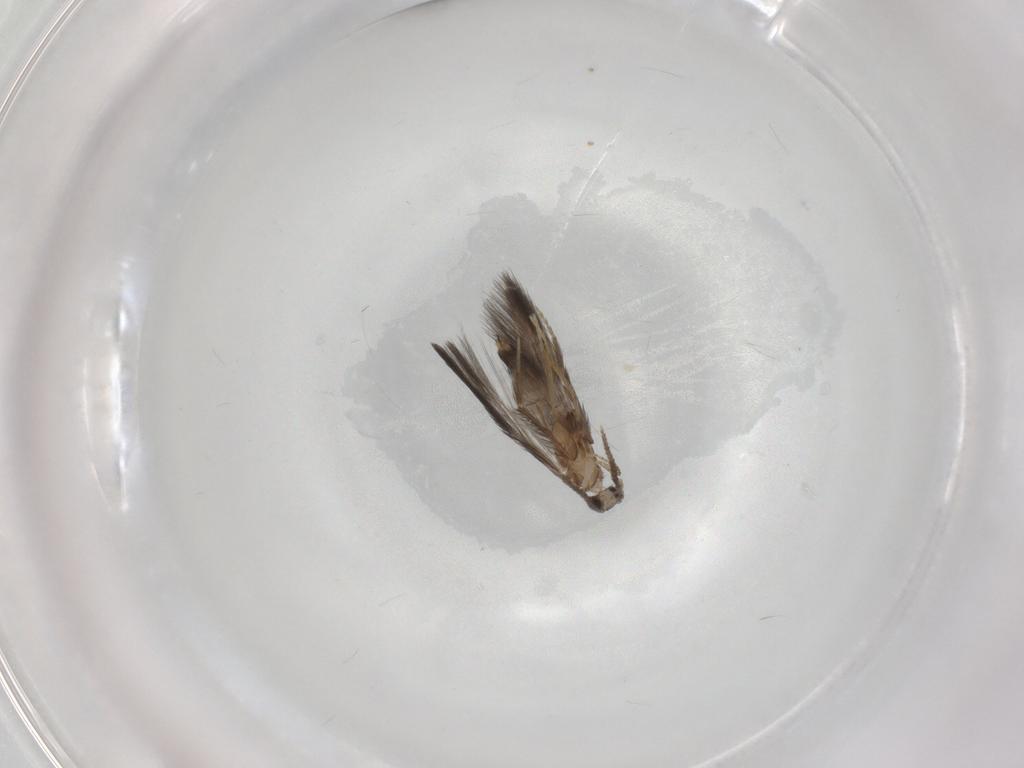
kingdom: Animalia
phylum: Arthropoda
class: Insecta
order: Trichoptera
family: Hydroptilidae
